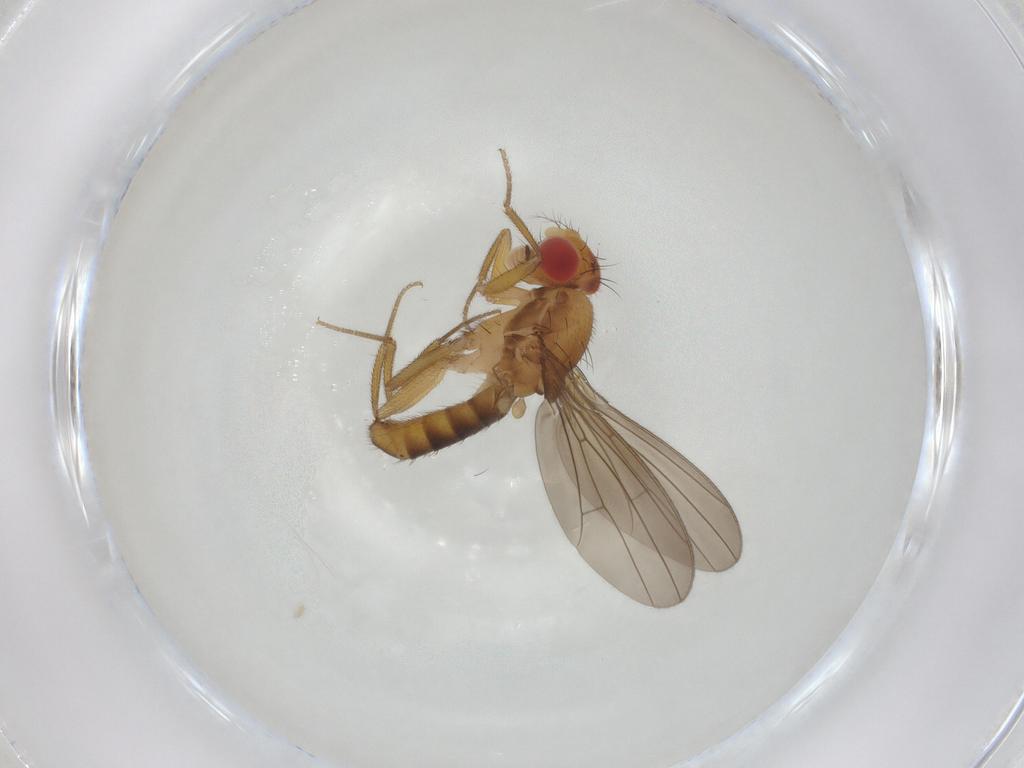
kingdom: Animalia
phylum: Arthropoda
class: Insecta
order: Diptera
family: Drosophilidae
